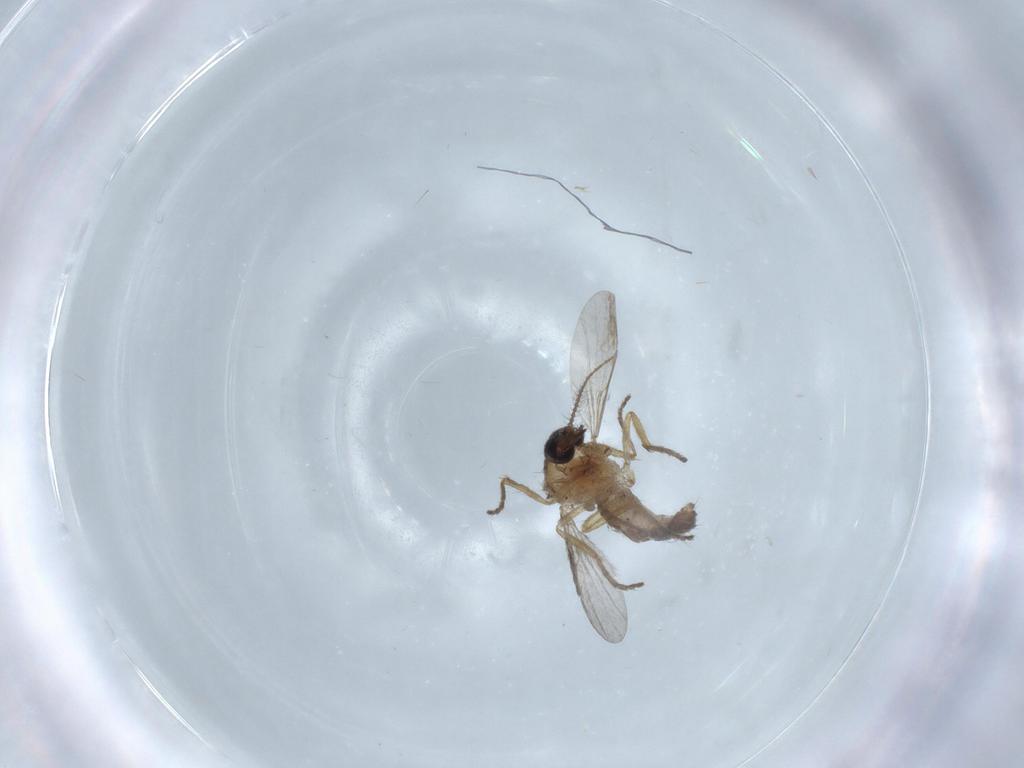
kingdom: Animalia
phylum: Arthropoda
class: Insecta
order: Diptera
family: Ceratopogonidae
